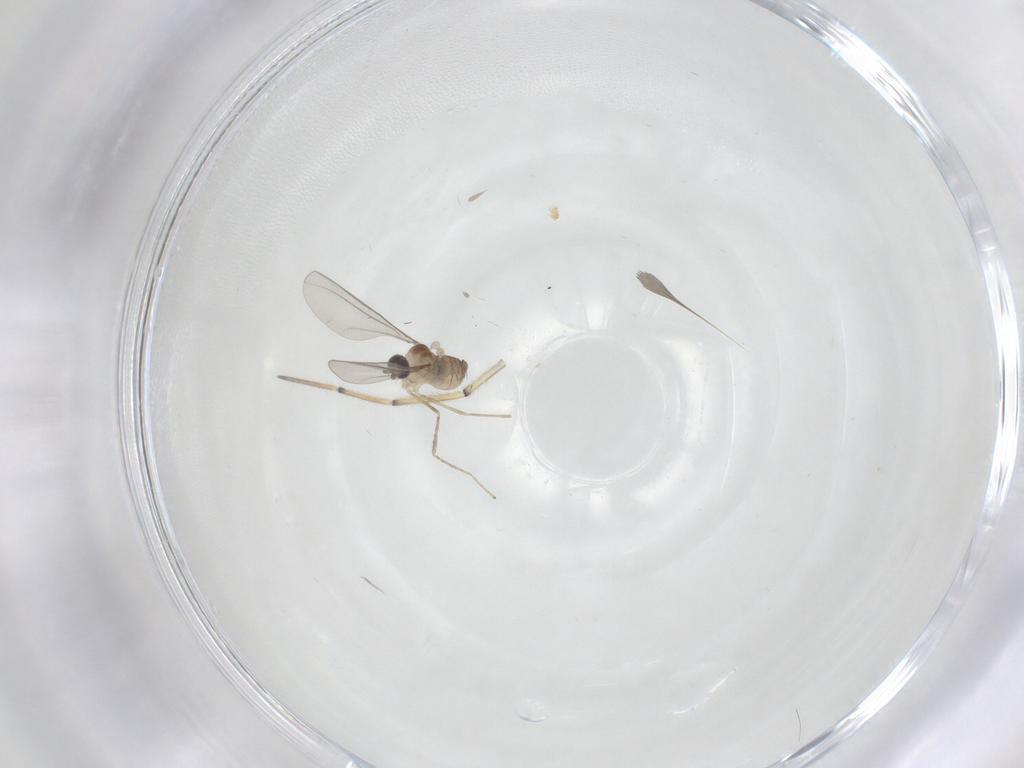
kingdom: Animalia
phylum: Arthropoda
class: Insecta
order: Diptera
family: Cecidomyiidae
